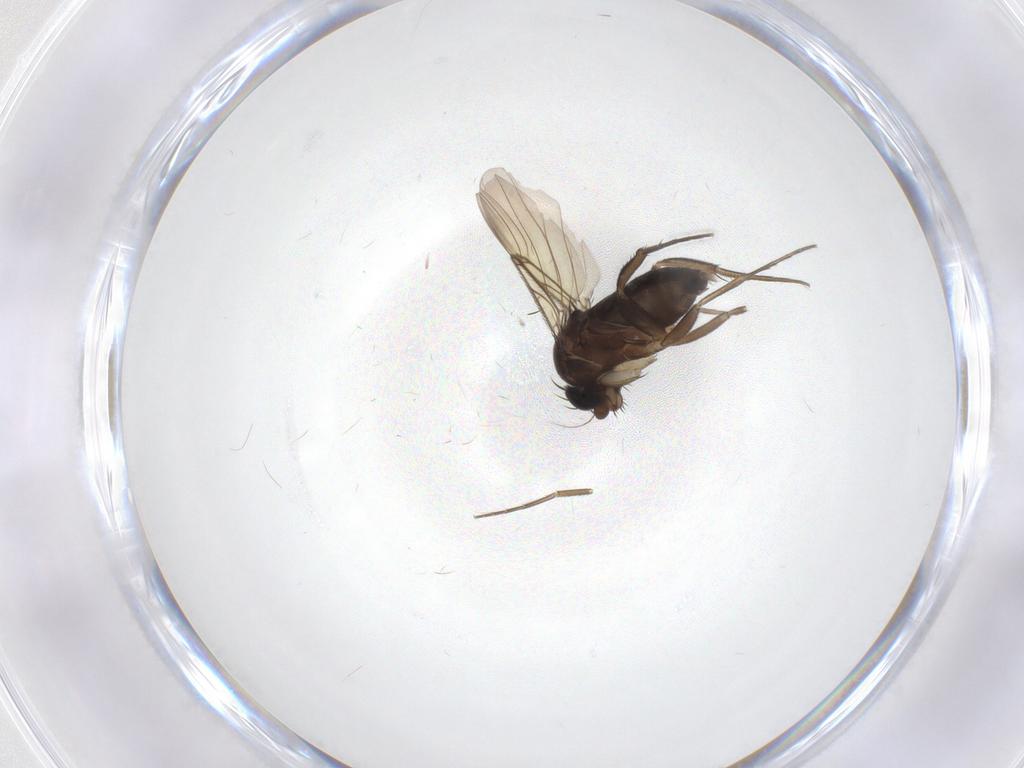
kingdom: Animalia
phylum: Arthropoda
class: Insecta
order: Diptera
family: Phoridae
